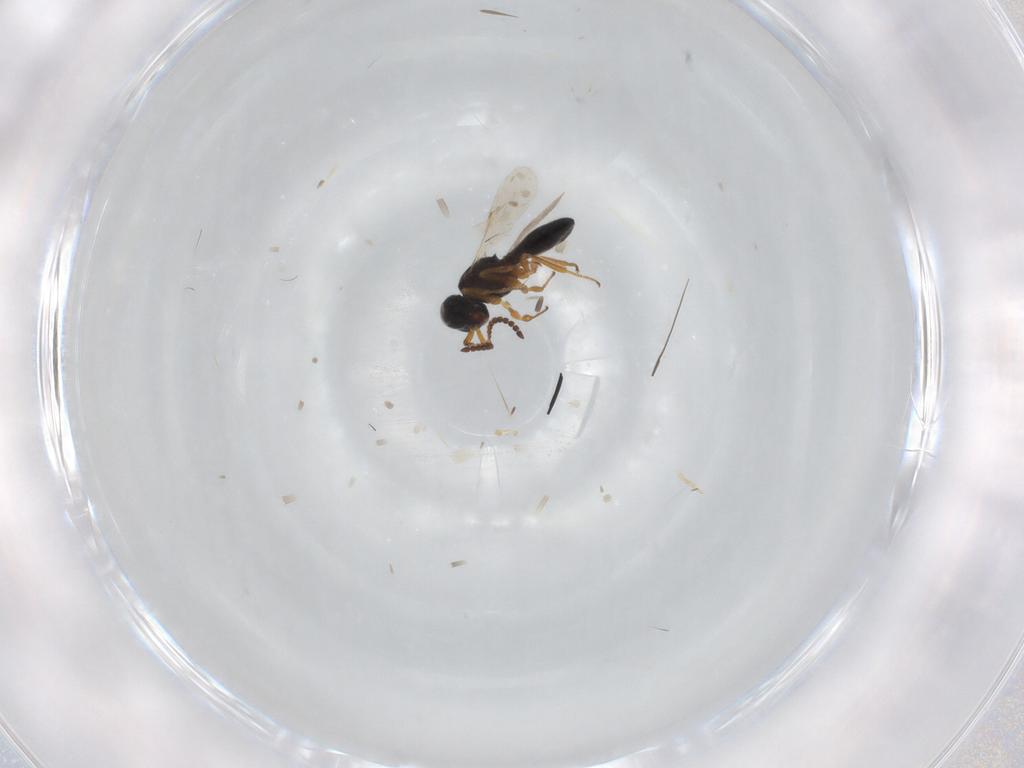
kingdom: Animalia
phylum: Arthropoda
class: Insecta
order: Hymenoptera
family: Scelionidae
